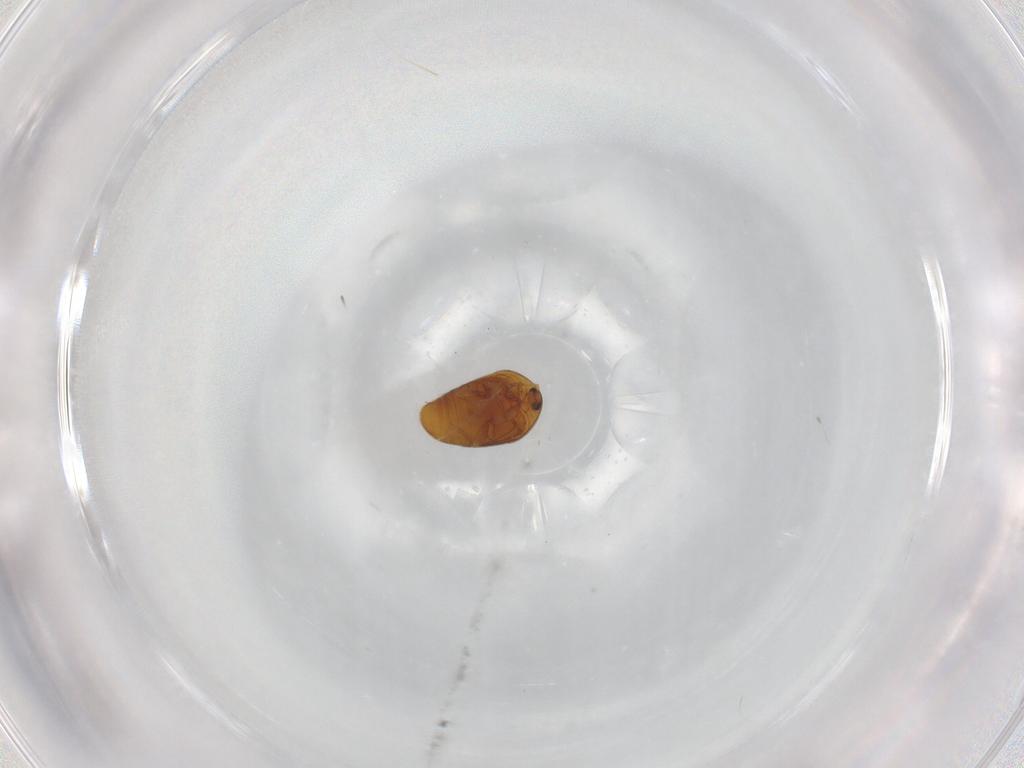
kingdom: Animalia
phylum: Arthropoda
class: Insecta
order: Coleoptera
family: Corylophidae
